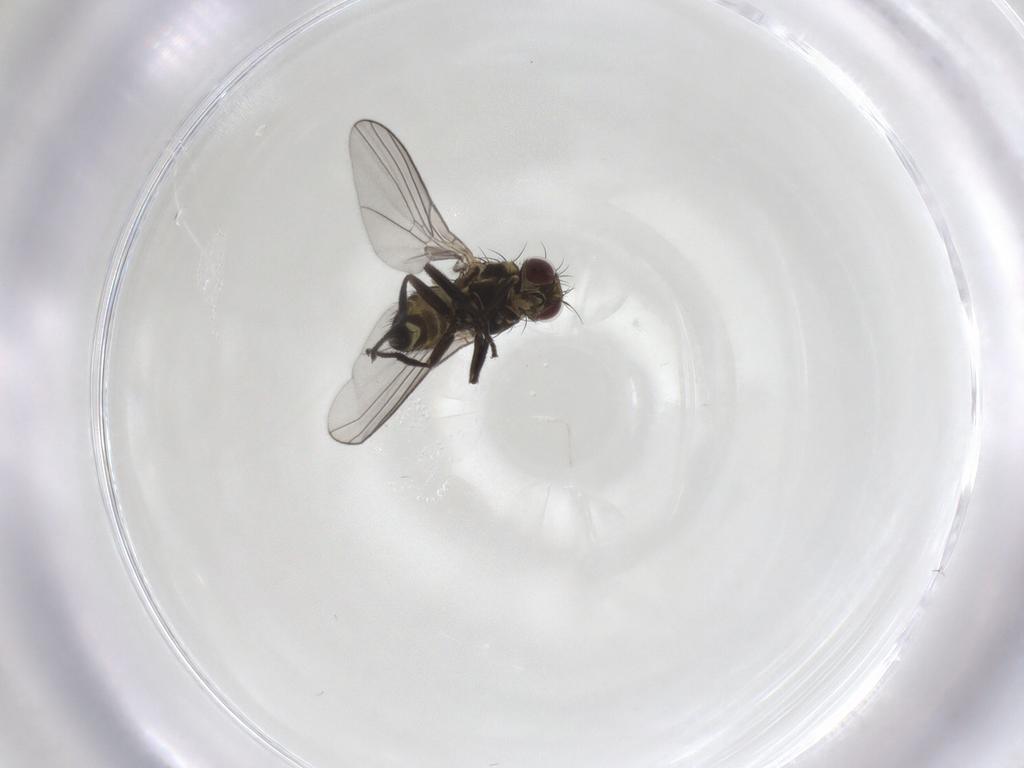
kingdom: Animalia
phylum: Arthropoda
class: Insecta
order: Diptera
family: Agromyzidae
